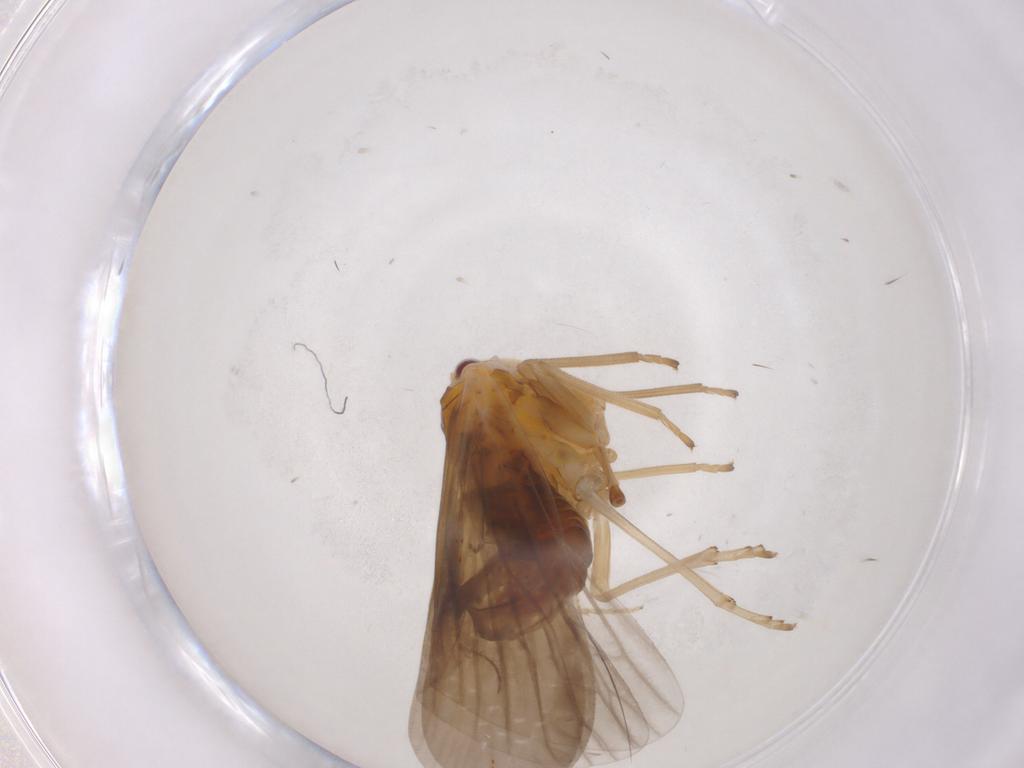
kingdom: Animalia
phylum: Arthropoda
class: Insecta
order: Hemiptera
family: Derbidae
